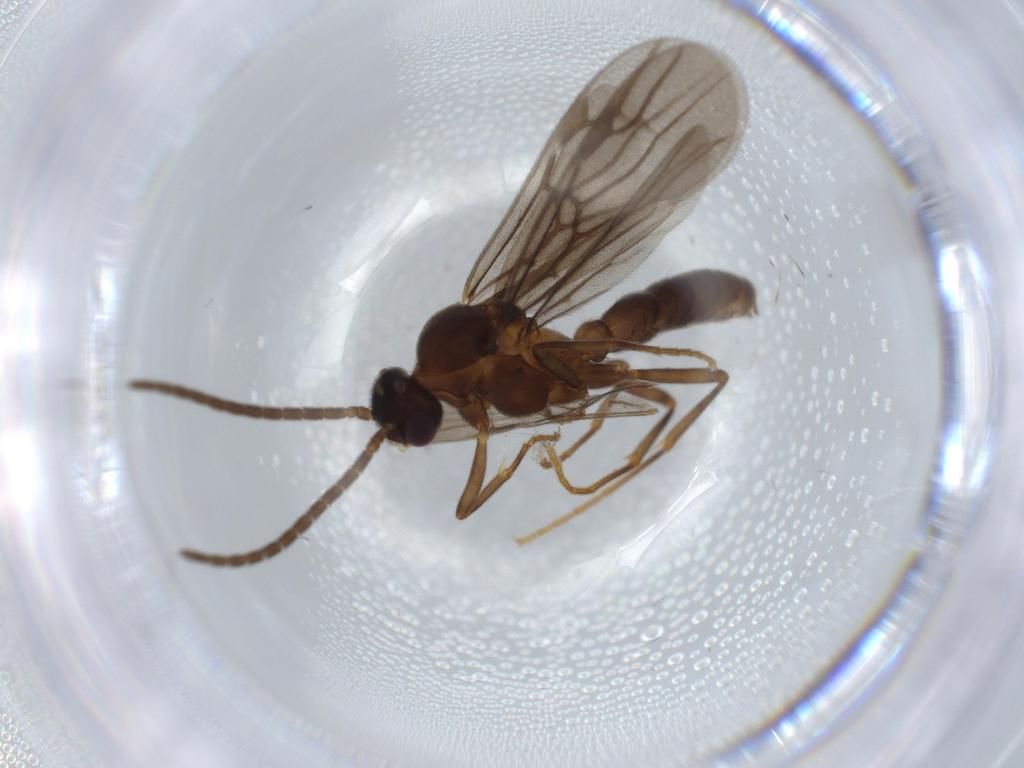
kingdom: Animalia
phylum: Arthropoda
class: Insecta
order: Hymenoptera
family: Formicidae
